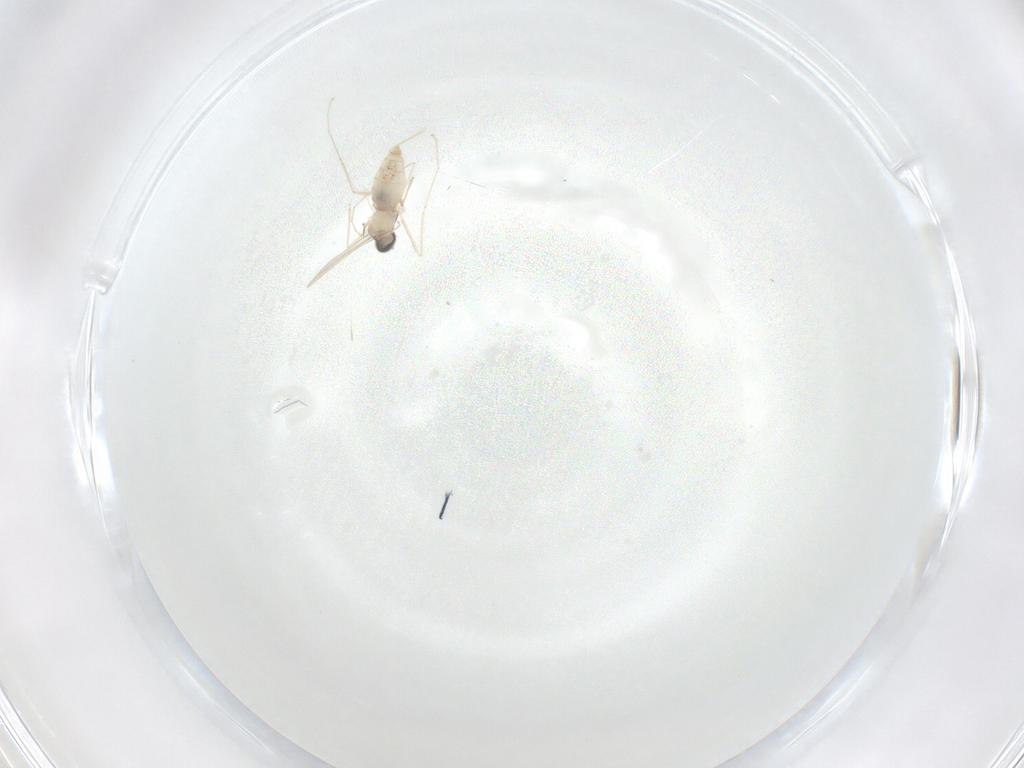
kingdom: Animalia
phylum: Arthropoda
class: Insecta
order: Diptera
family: Cecidomyiidae
